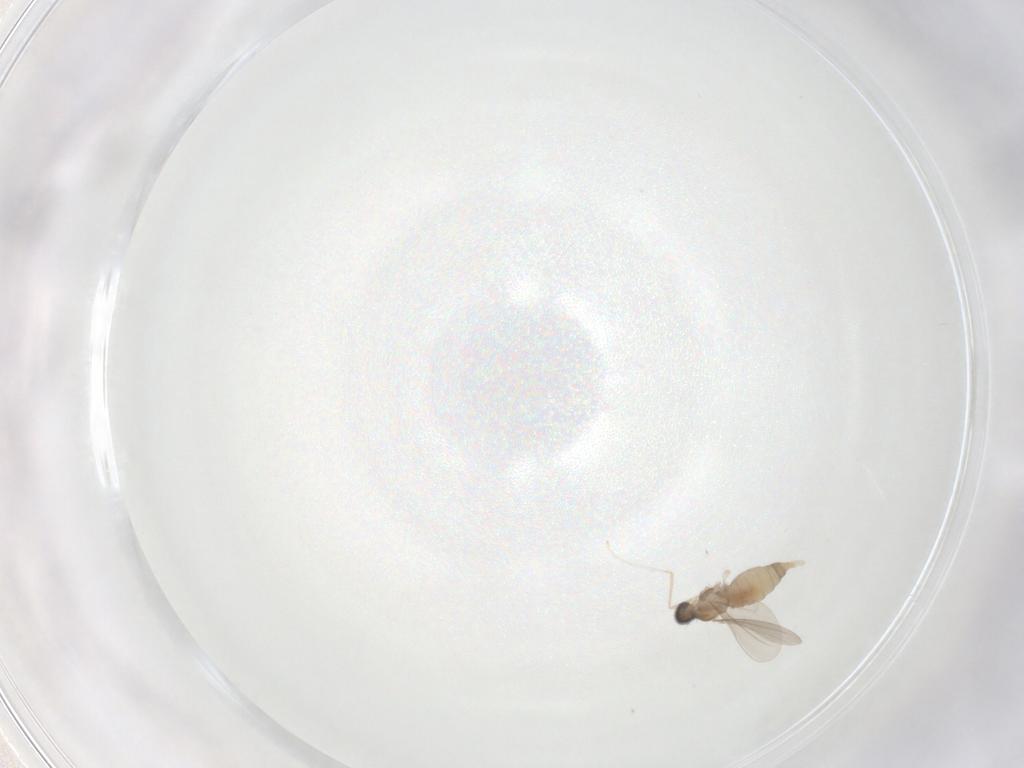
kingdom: Animalia
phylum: Arthropoda
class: Insecta
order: Diptera
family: Cecidomyiidae
